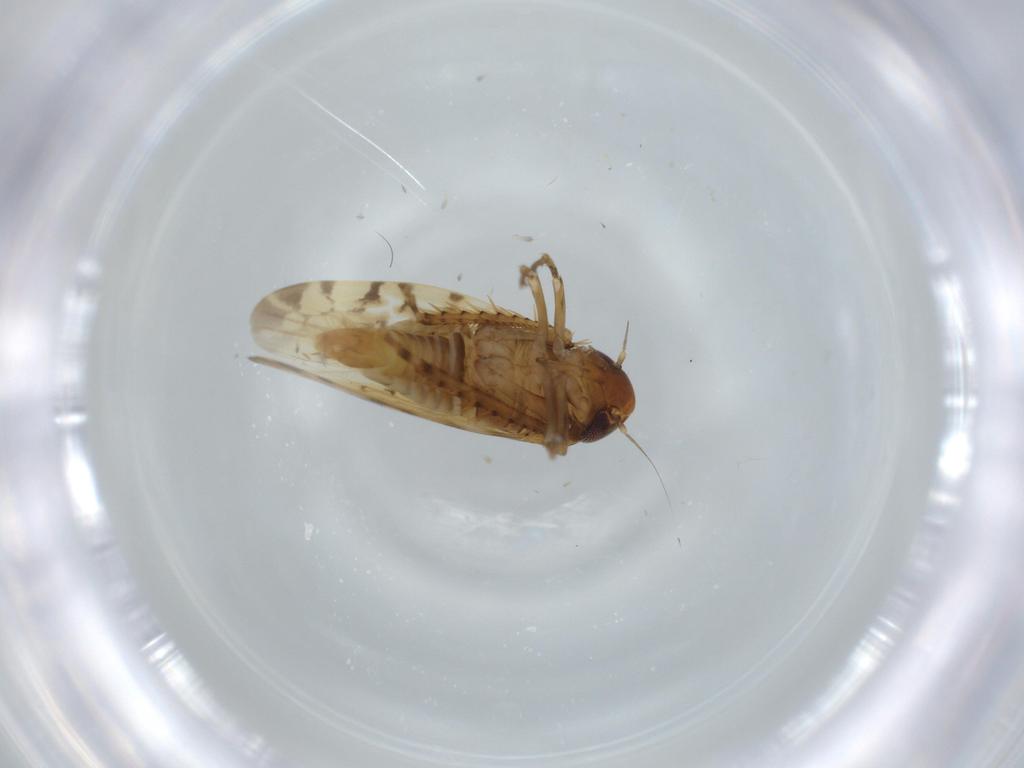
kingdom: Animalia
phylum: Arthropoda
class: Insecta
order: Hemiptera
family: Cicadellidae
